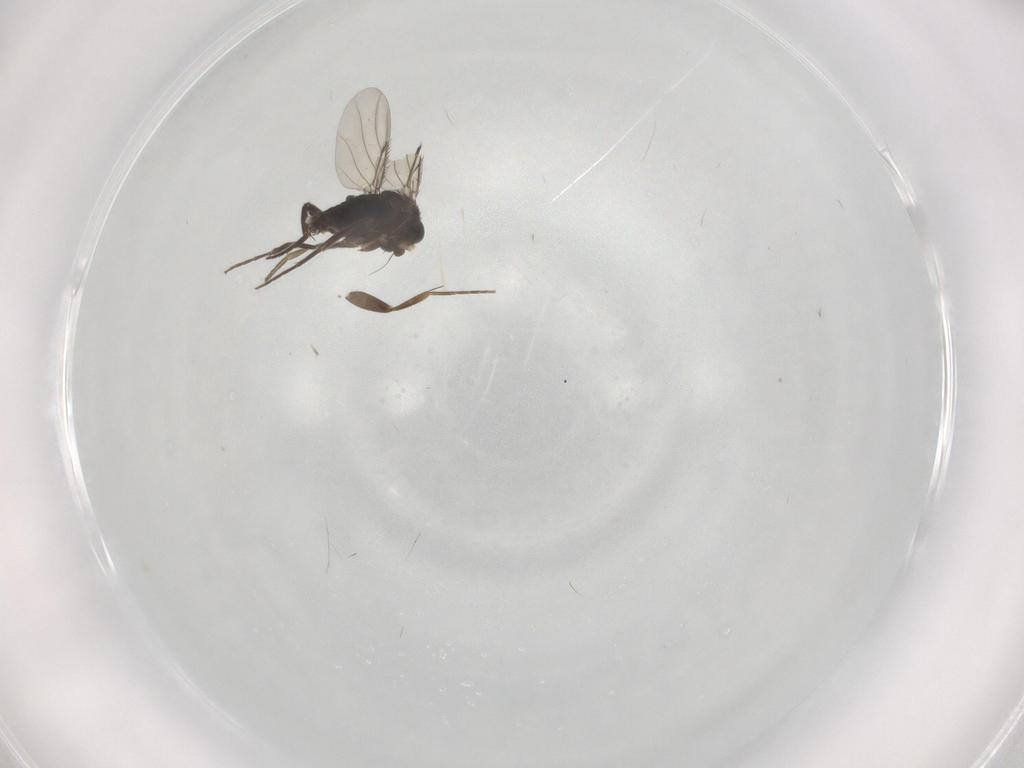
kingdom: Animalia
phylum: Arthropoda
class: Insecta
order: Diptera
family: Phoridae
